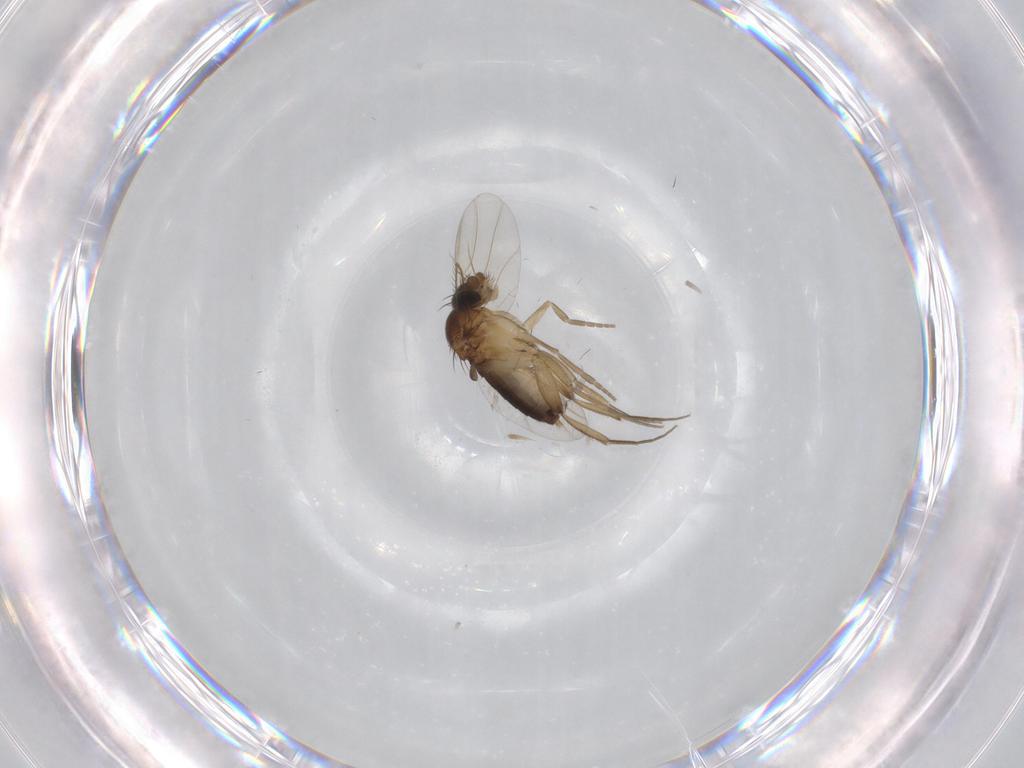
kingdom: Animalia
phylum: Arthropoda
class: Insecta
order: Diptera
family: Phoridae
